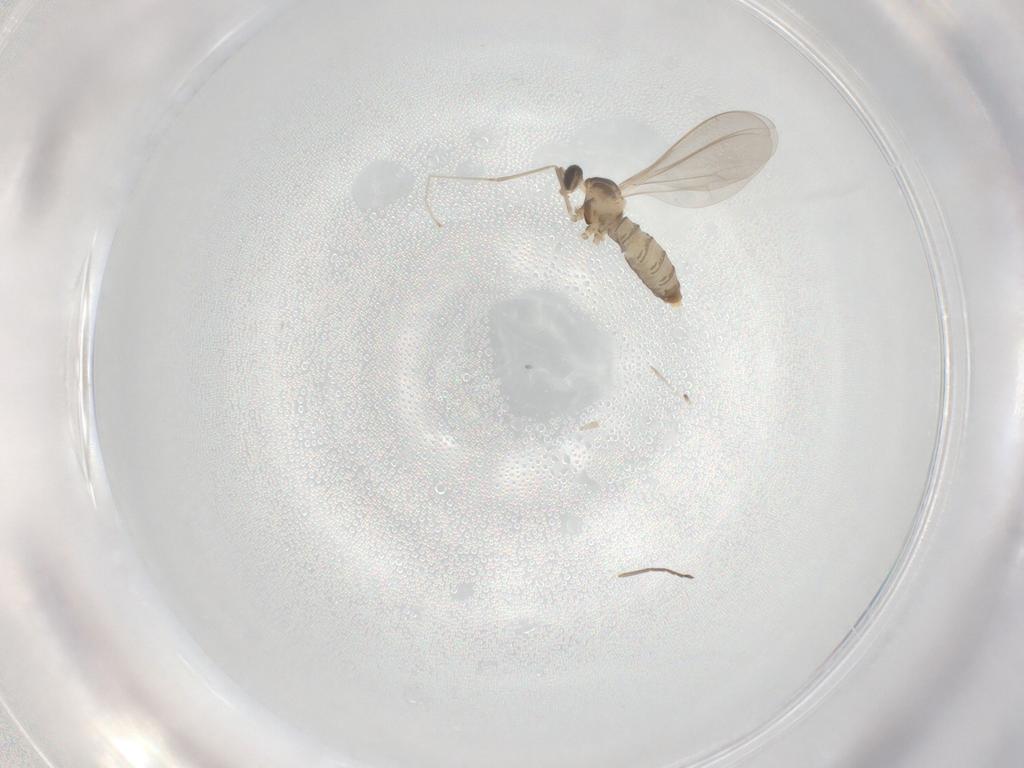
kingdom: Animalia
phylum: Arthropoda
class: Insecta
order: Diptera
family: Cecidomyiidae
